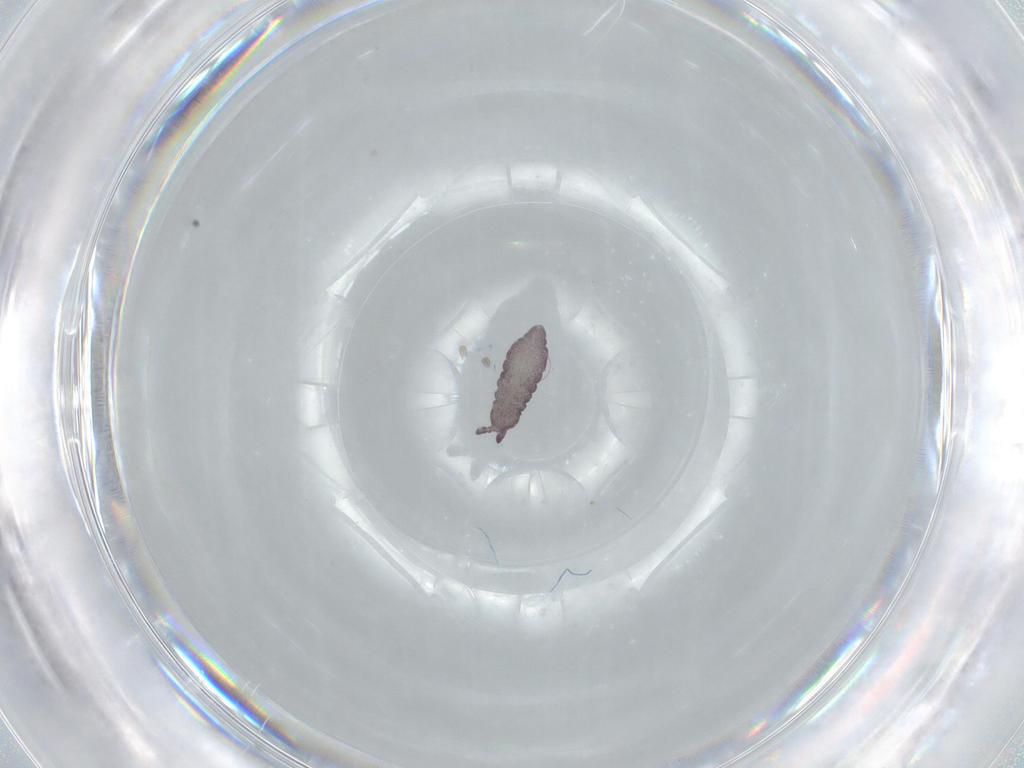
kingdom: Animalia
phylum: Arthropoda
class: Collembola
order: Poduromorpha
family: Hypogastruridae
